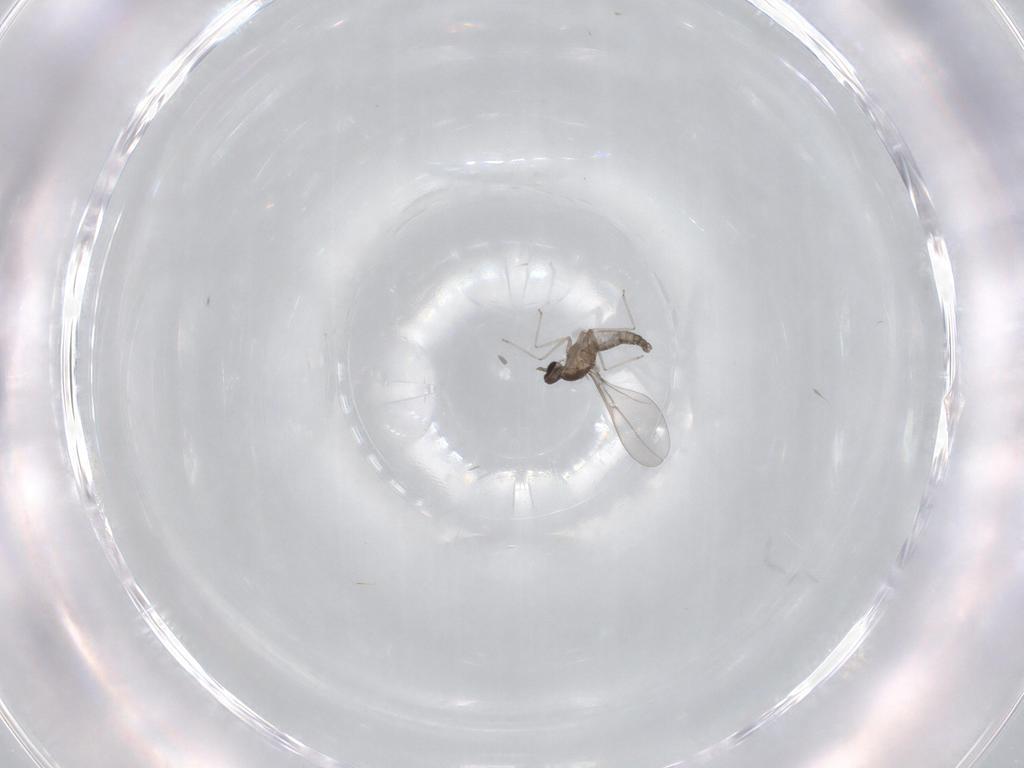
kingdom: Animalia
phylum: Arthropoda
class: Insecta
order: Diptera
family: Cecidomyiidae
